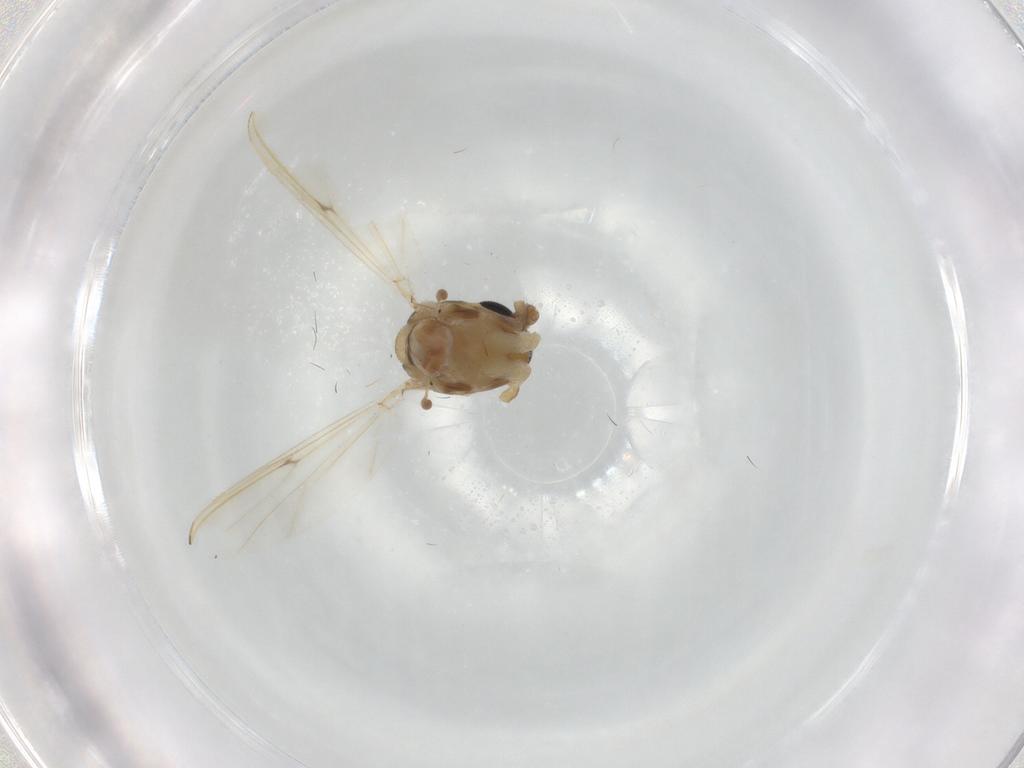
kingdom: Animalia
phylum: Arthropoda
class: Insecta
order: Diptera
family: Chironomidae
